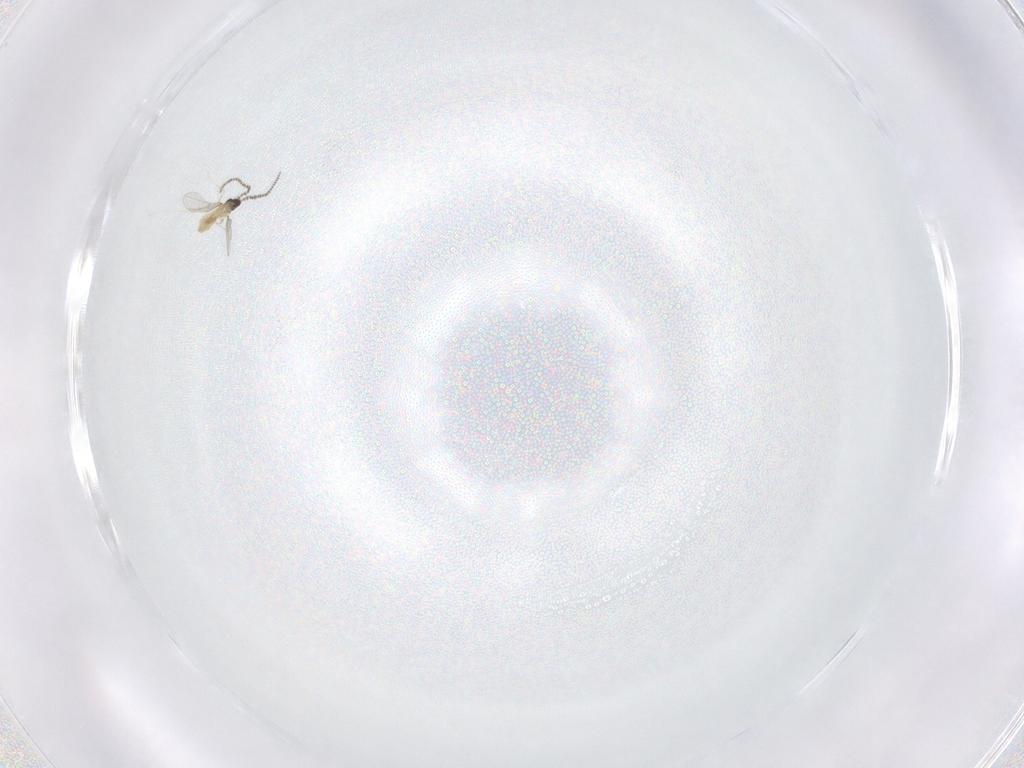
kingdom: Animalia
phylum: Arthropoda
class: Insecta
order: Diptera
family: Cecidomyiidae
